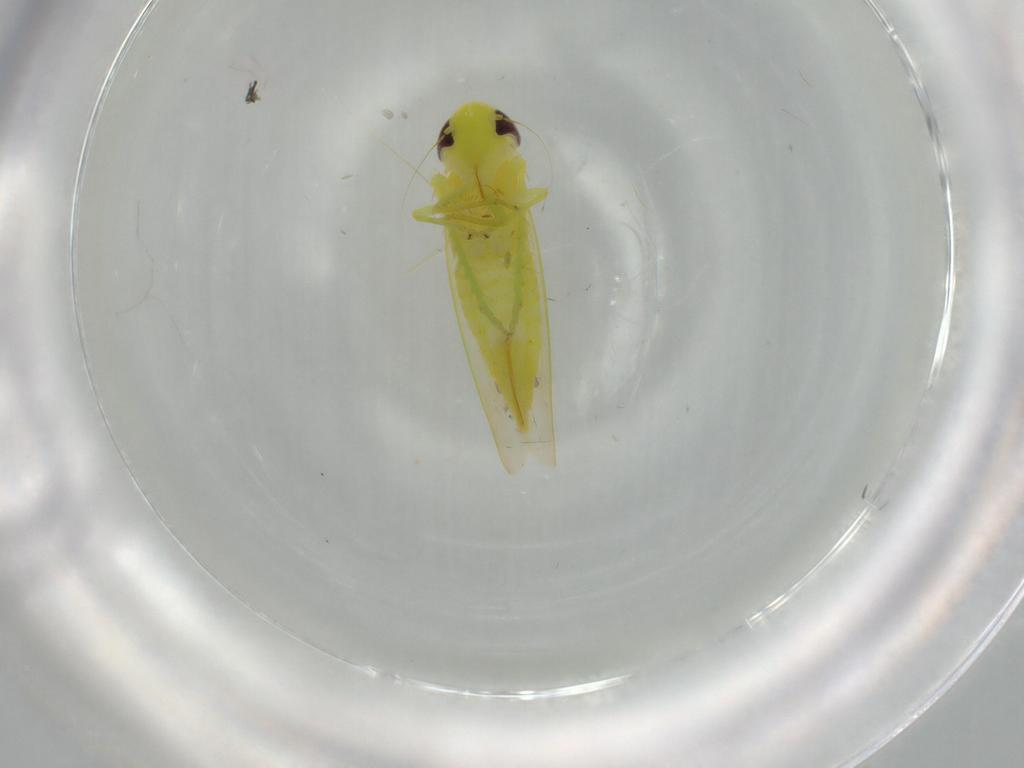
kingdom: Animalia
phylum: Arthropoda
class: Insecta
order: Hemiptera
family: Cicadellidae
